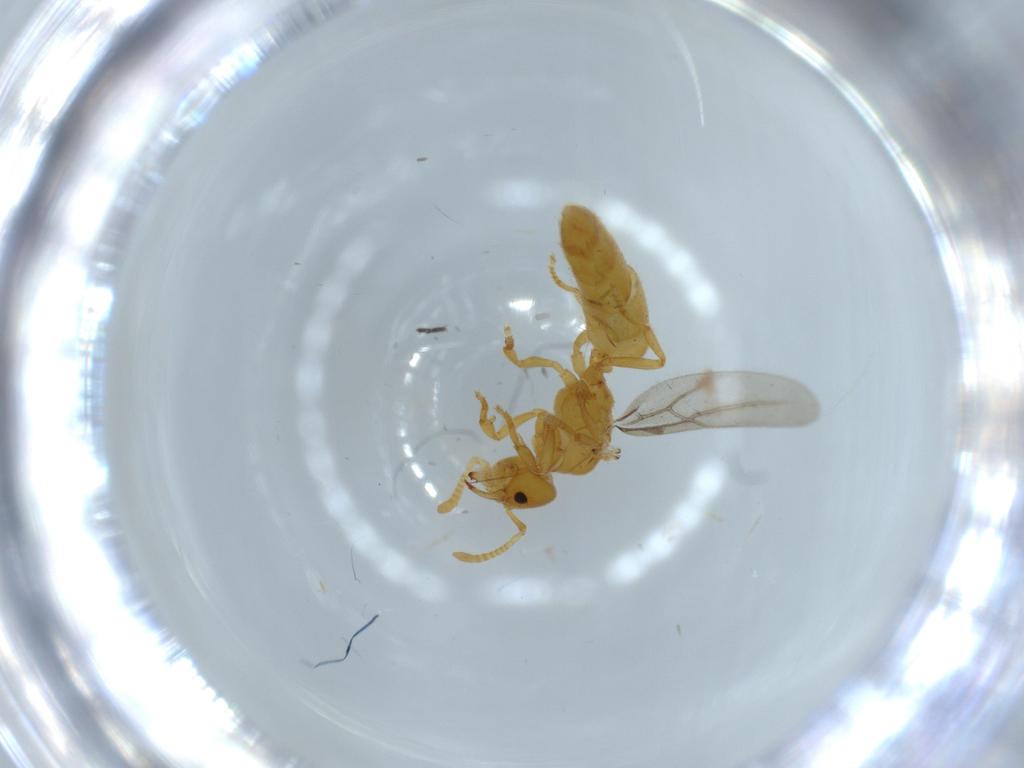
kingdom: Animalia
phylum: Arthropoda
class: Insecta
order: Hymenoptera
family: Formicidae
